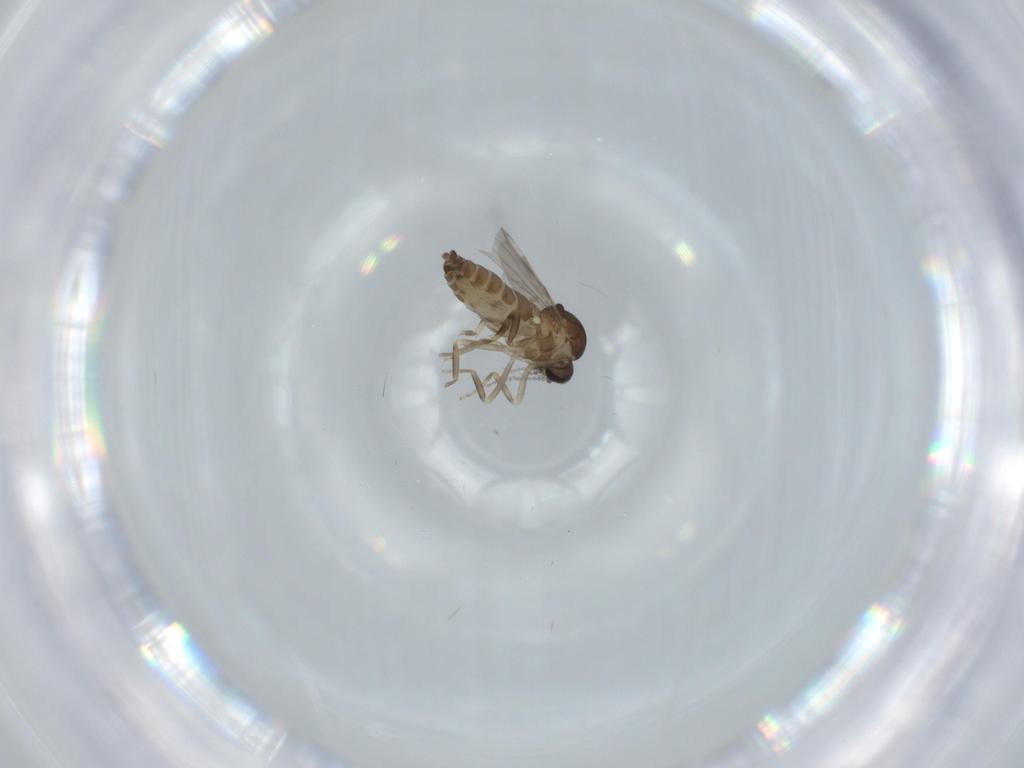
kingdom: Animalia
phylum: Arthropoda
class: Insecta
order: Diptera
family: Ceratopogonidae
